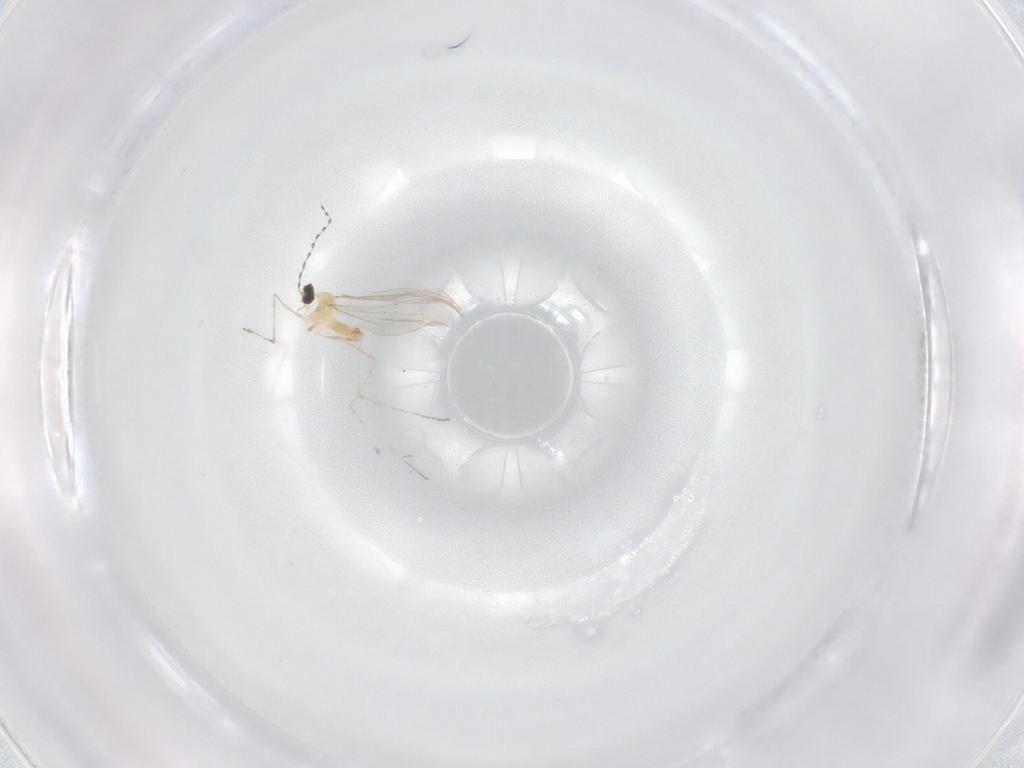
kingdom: Animalia
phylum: Arthropoda
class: Insecta
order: Diptera
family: Cecidomyiidae
